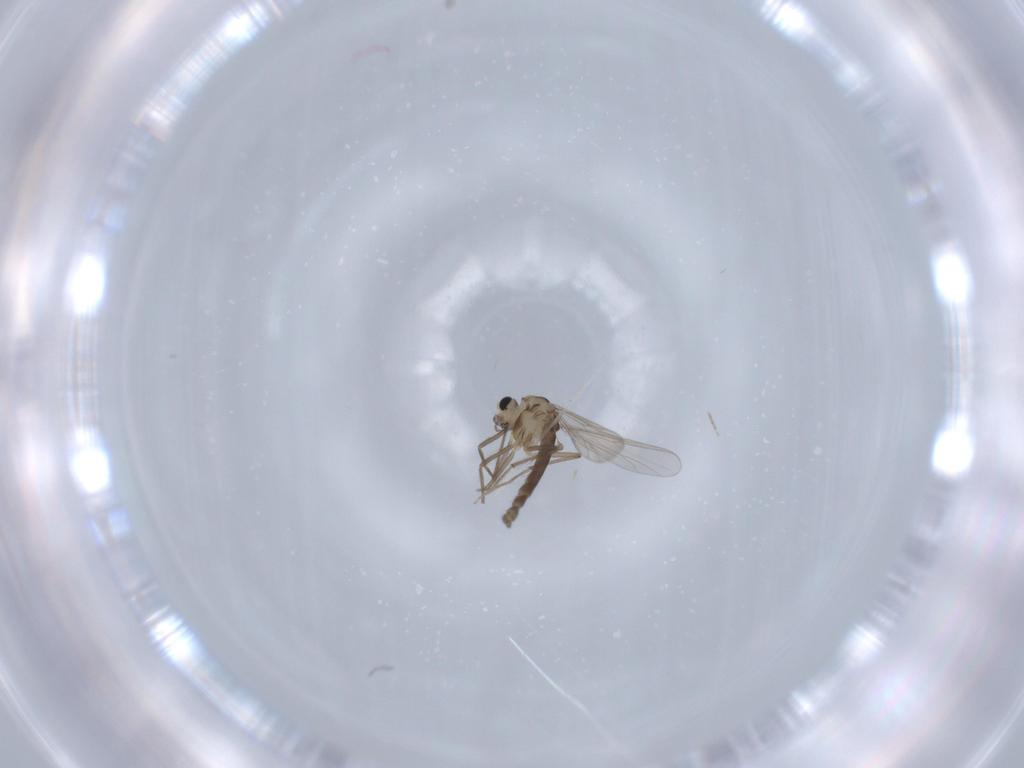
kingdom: Animalia
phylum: Arthropoda
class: Insecta
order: Diptera
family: Chironomidae
